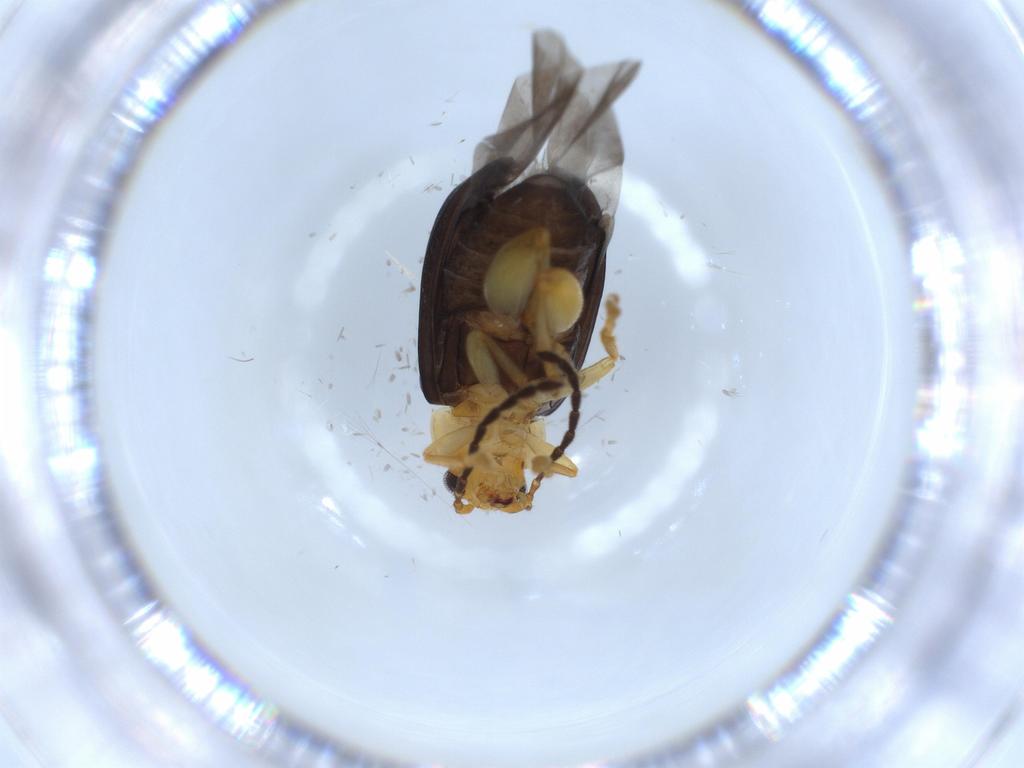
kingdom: Animalia
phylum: Arthropoda
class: Insecta
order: Coleoptera
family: Chrysomelidae
